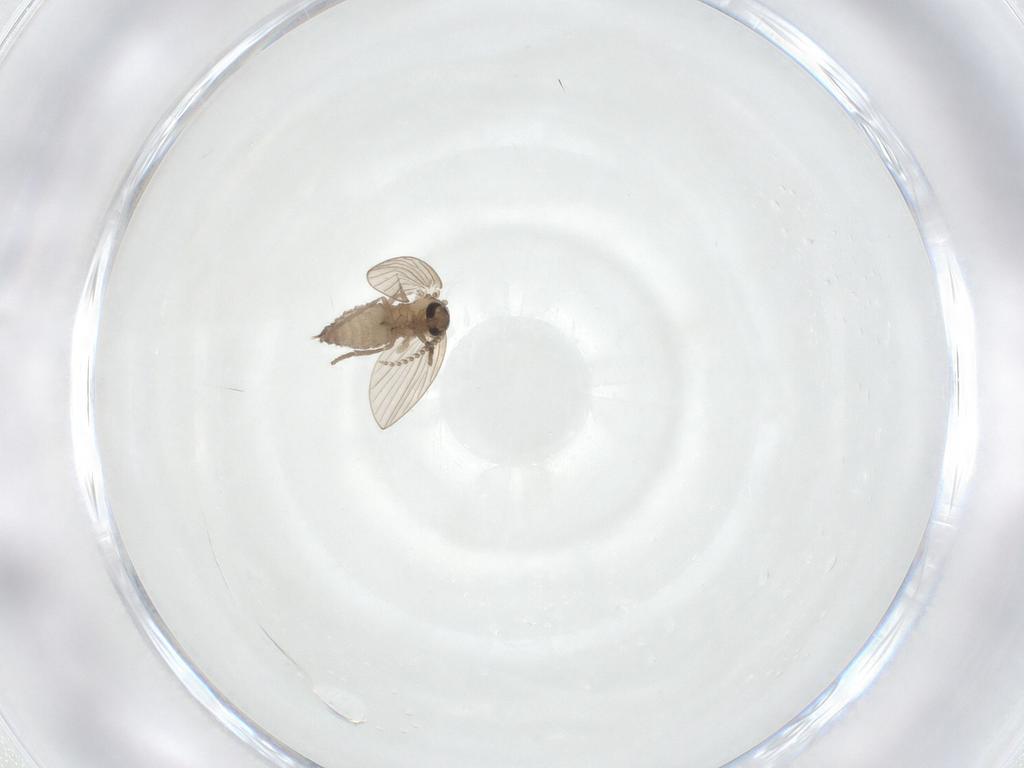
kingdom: Animalia
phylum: Arthropoda
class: Insecta
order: Diptera
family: Psychodidae
